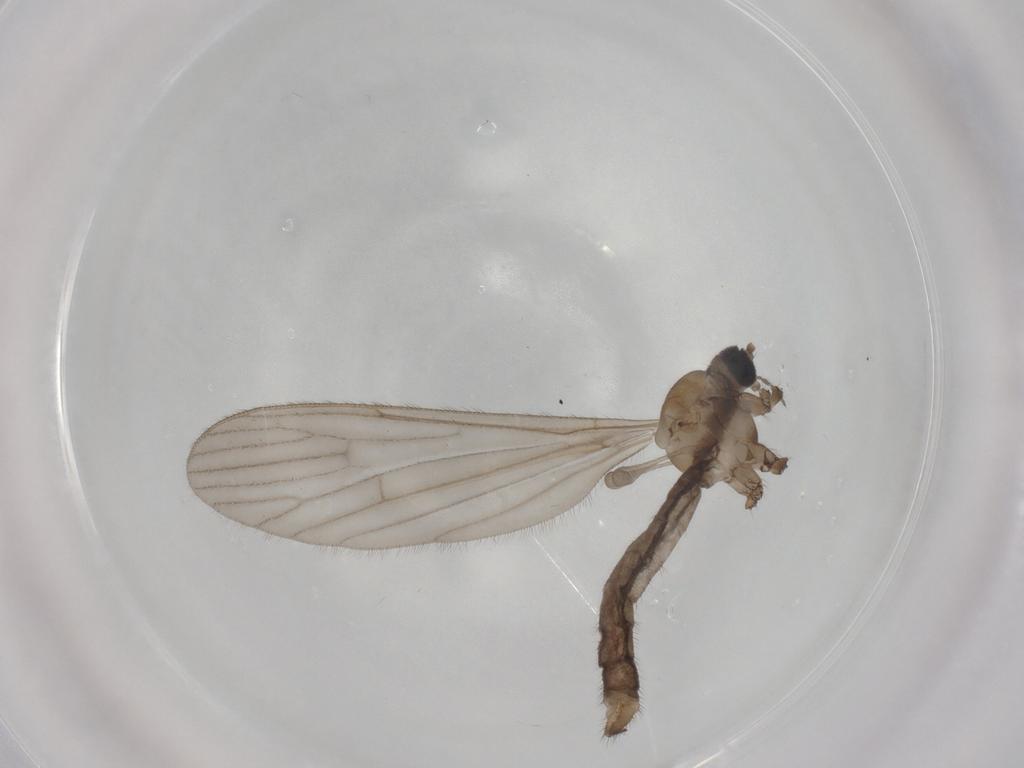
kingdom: Animalia
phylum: Arthropoda
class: Insecta
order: Diptera
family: Limoniidae
